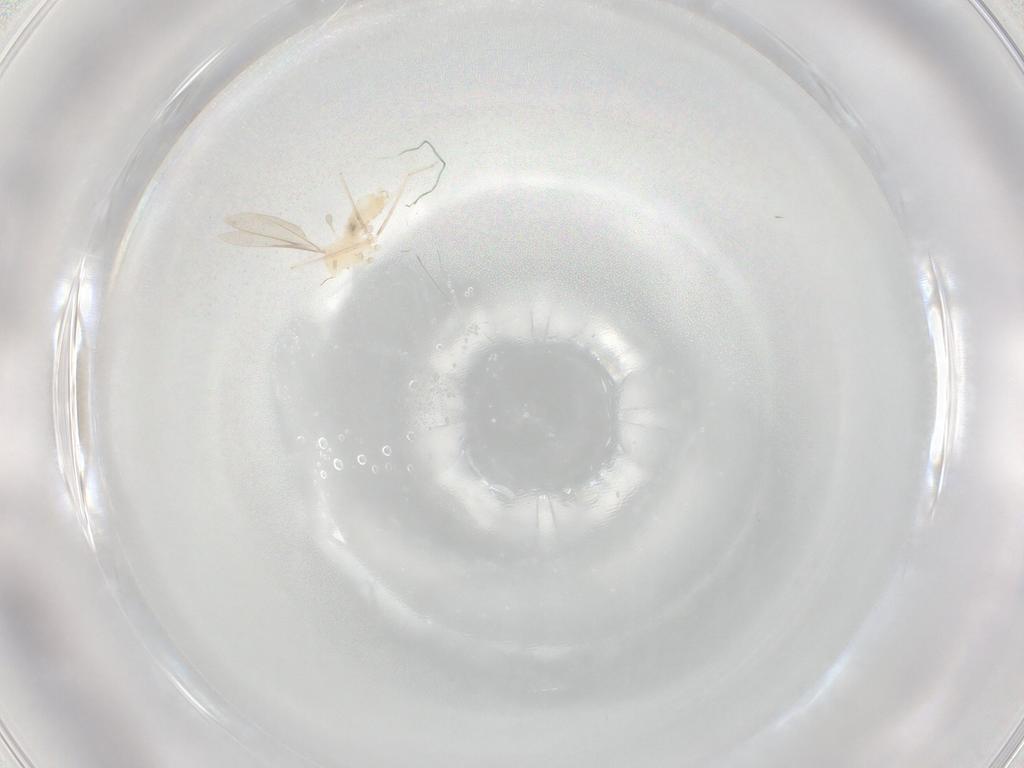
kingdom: Animalia
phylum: Arthropoda
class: Insecta
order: Diptera
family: Cecidomyiidae
